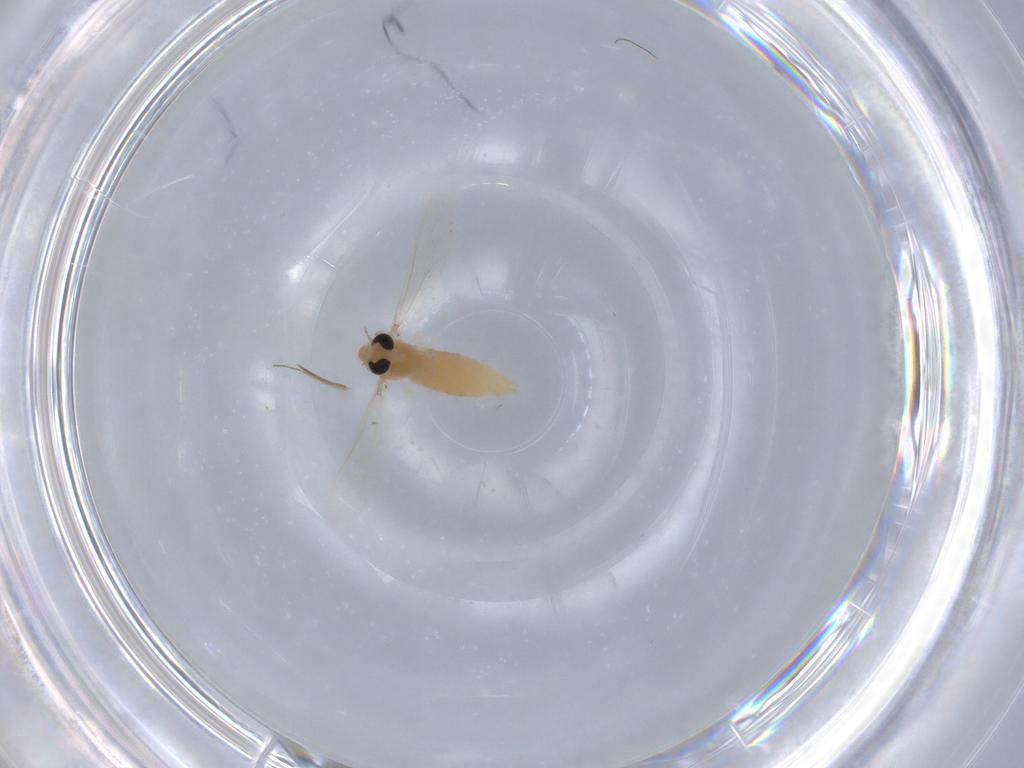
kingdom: Animalia
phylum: Arthropoda
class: Insecta
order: Diptera
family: Chironomidae
